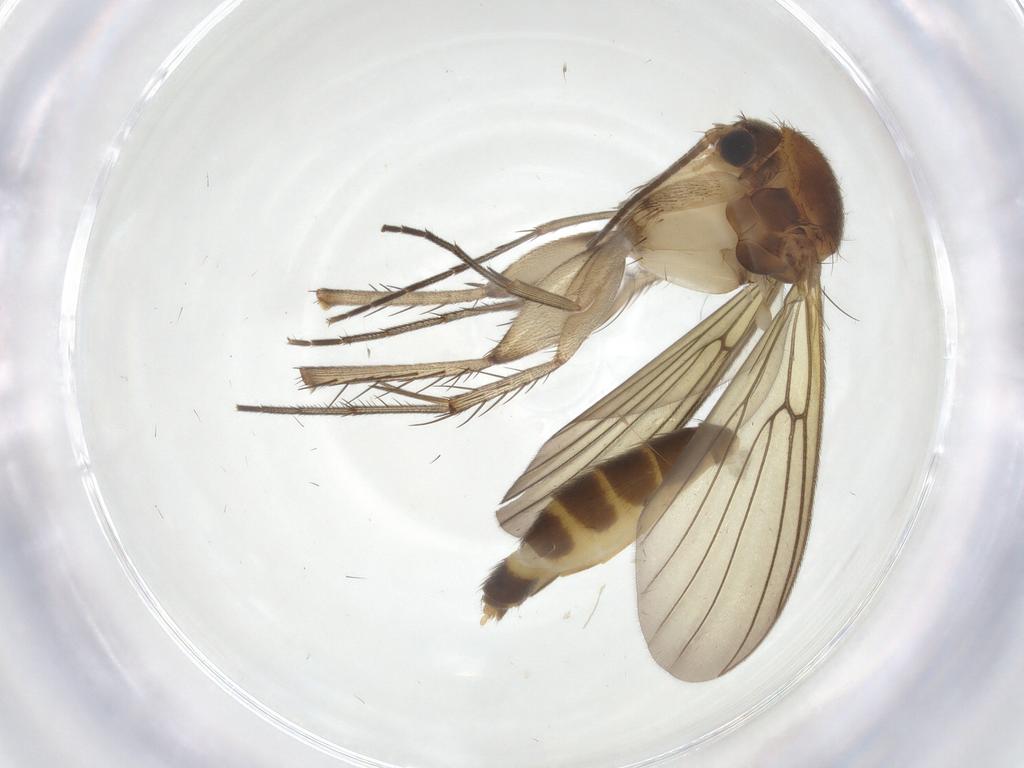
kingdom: Animalia
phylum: Arthropoda
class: Insecta
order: Diptera
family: Mycetophilidae
